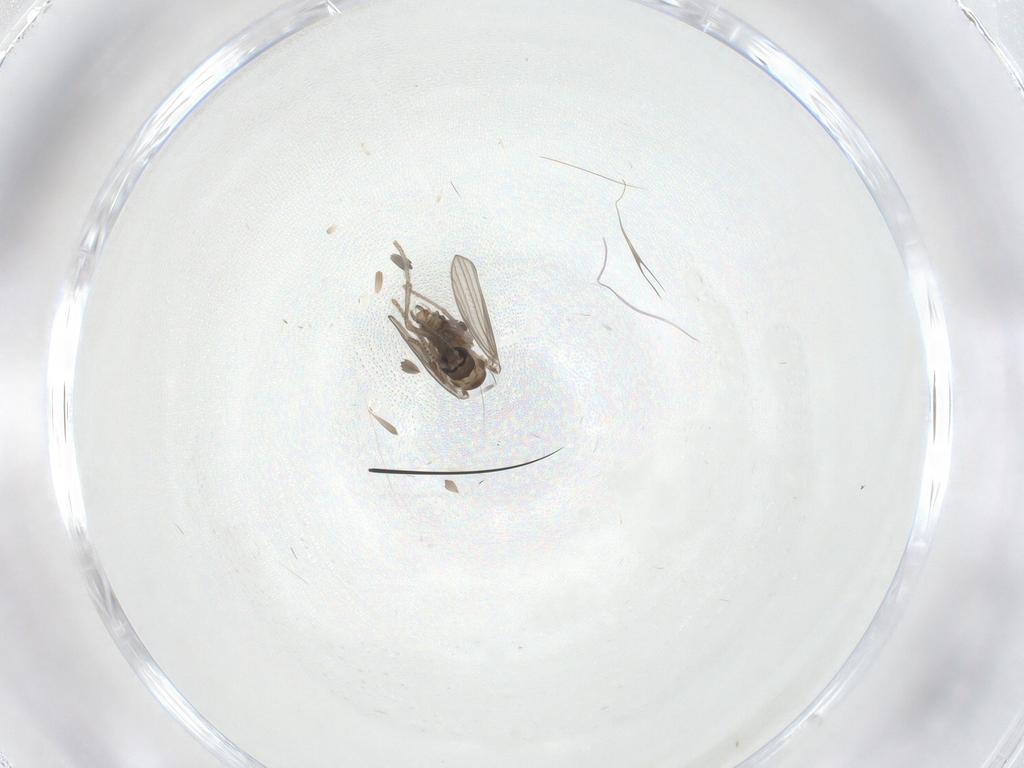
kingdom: Animalia
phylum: Arthropoda
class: Insecta
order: Diptera
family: Psychodidae
